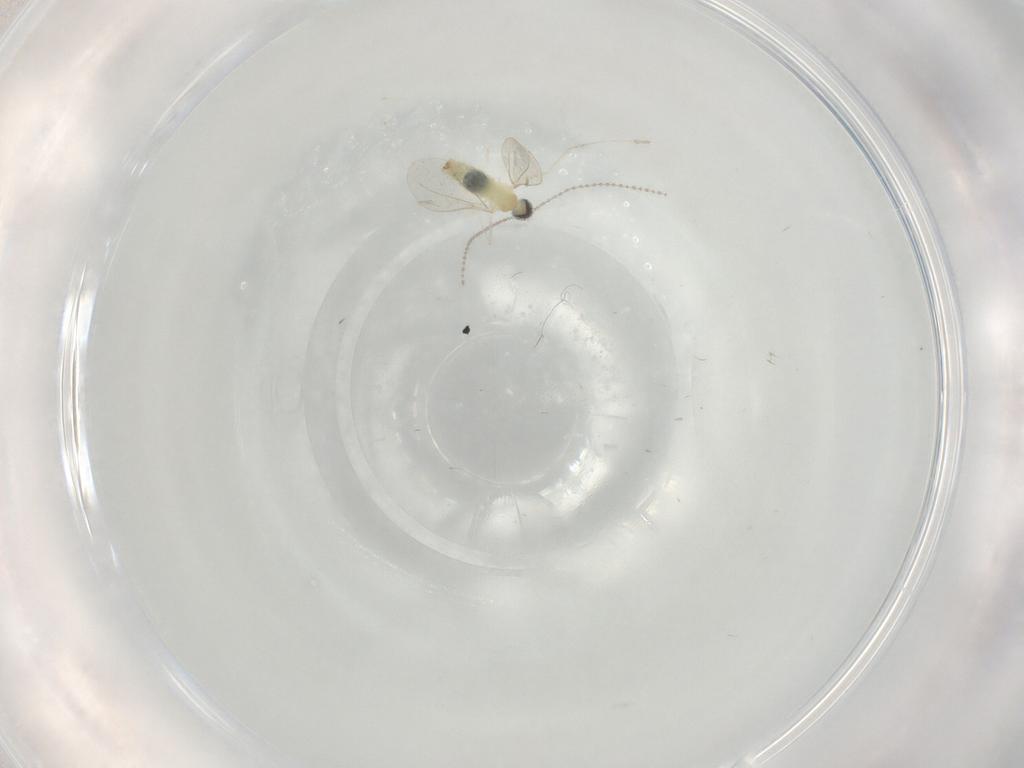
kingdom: Animalia
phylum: Arthropoda
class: Insecta
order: Diptera
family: Cecidomyiidae
